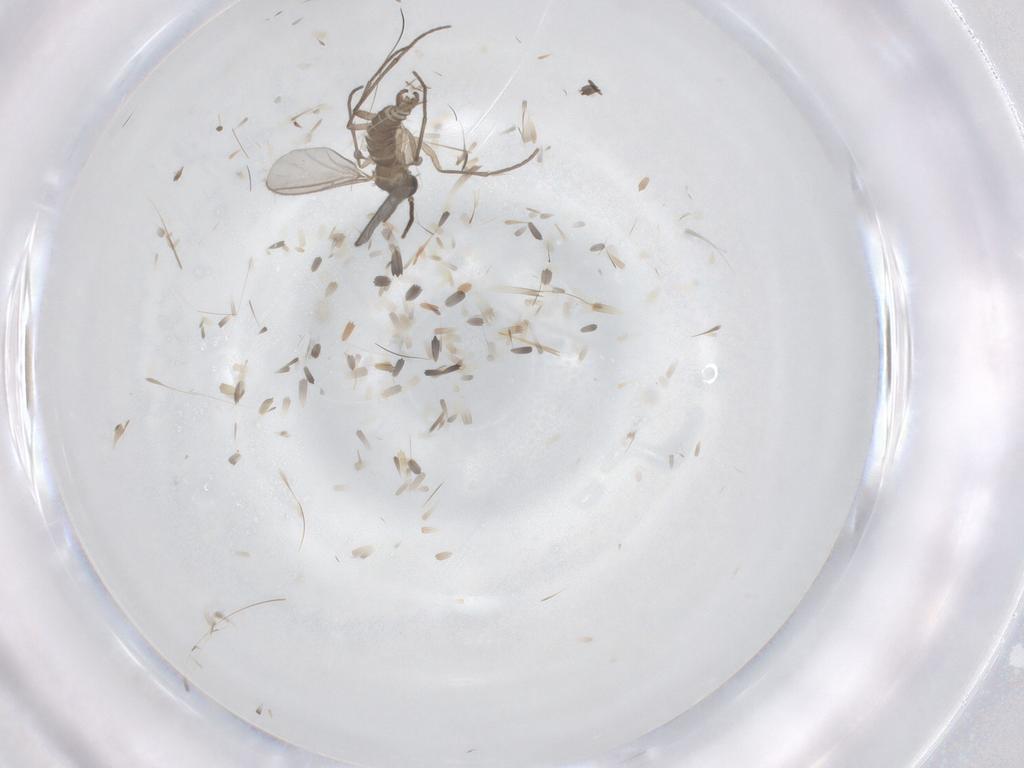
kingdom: Animalia
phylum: Arthropoda
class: Insecta
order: Diptera
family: Sciaridae
